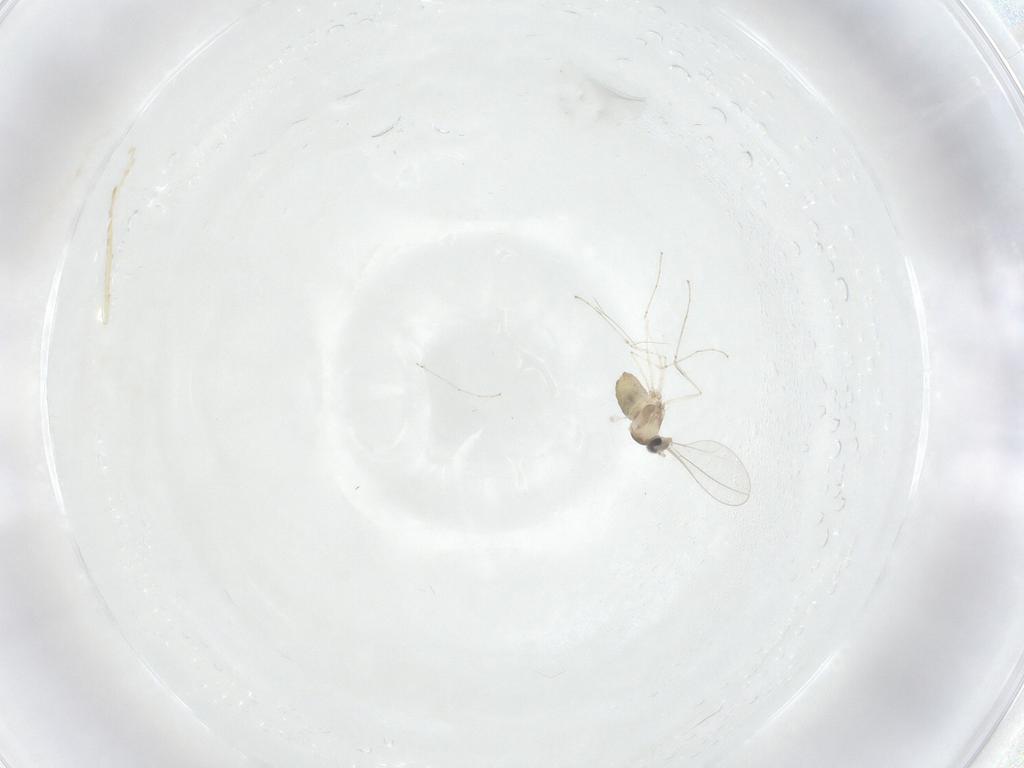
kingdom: Animalia
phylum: Arthropoda
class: Insecta
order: Diptera
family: Cecidomyiidae
